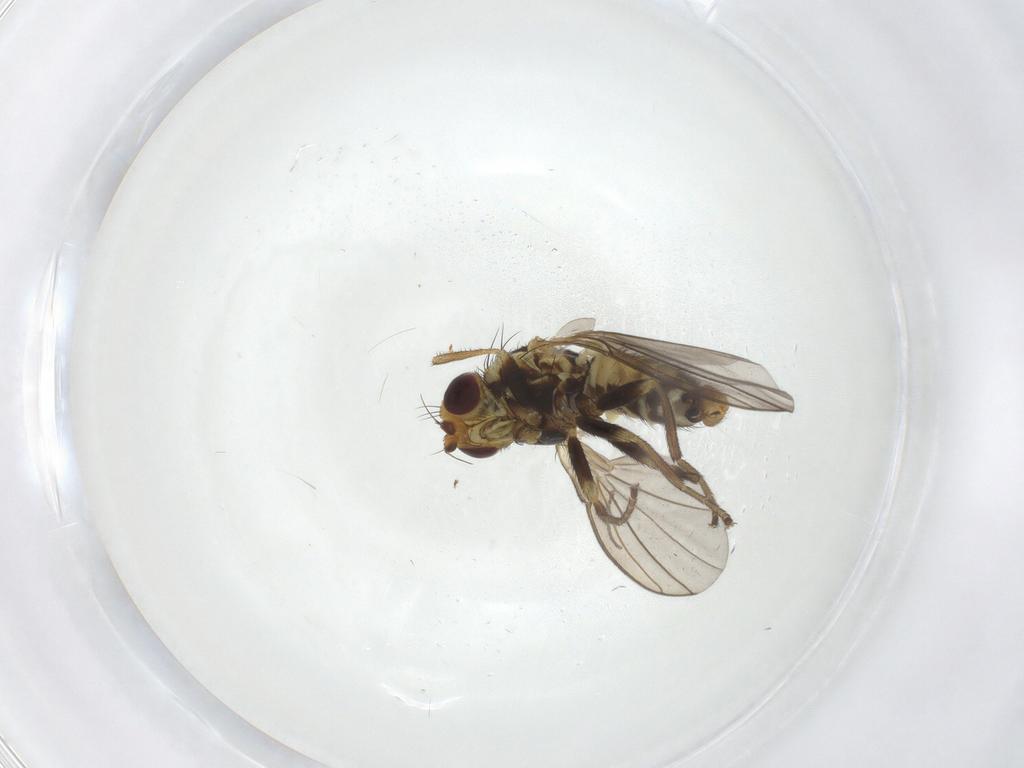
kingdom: Animalia
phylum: Arthropoda
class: Insecta
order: Diptera
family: Agromyzidae
